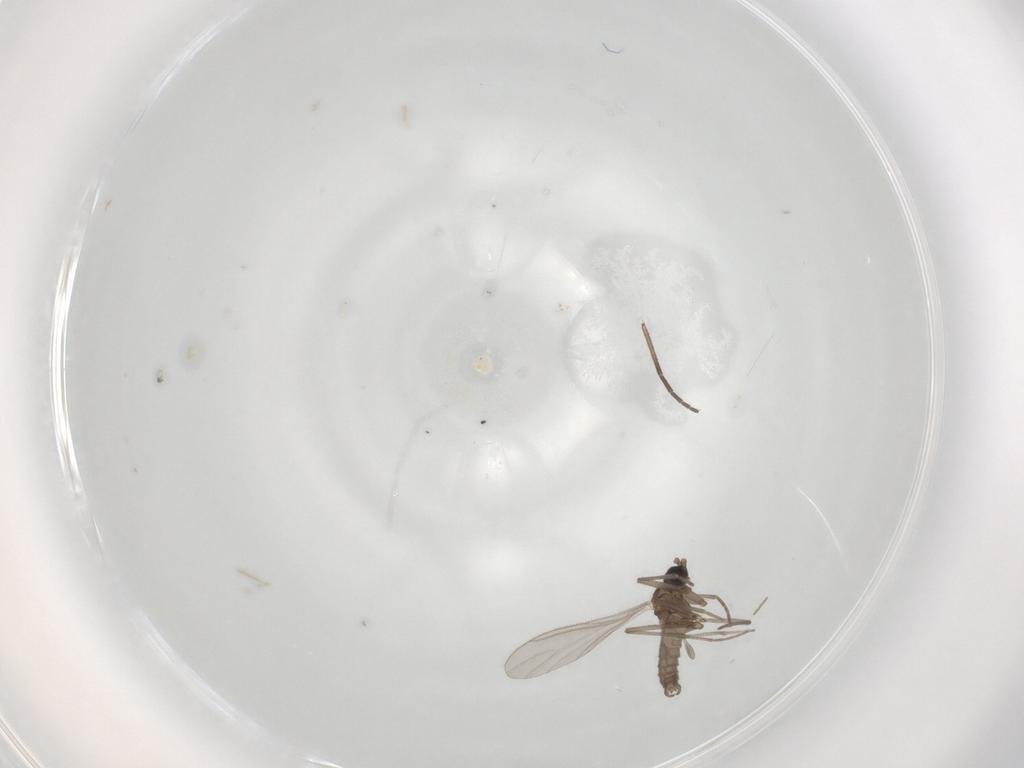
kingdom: Animalia
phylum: Arthropoda
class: Insecta
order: Diptera
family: Sciaridae
